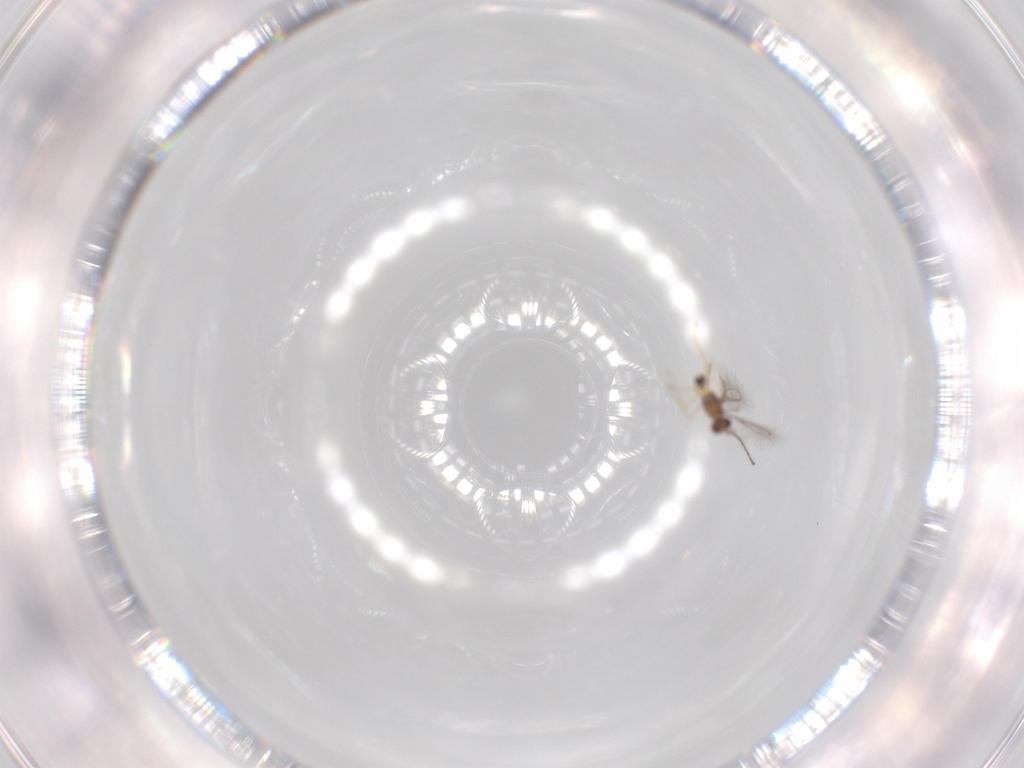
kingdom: Animalia
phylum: Arthropoda
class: Insecta
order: Hymenoptera
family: Mymaridae
